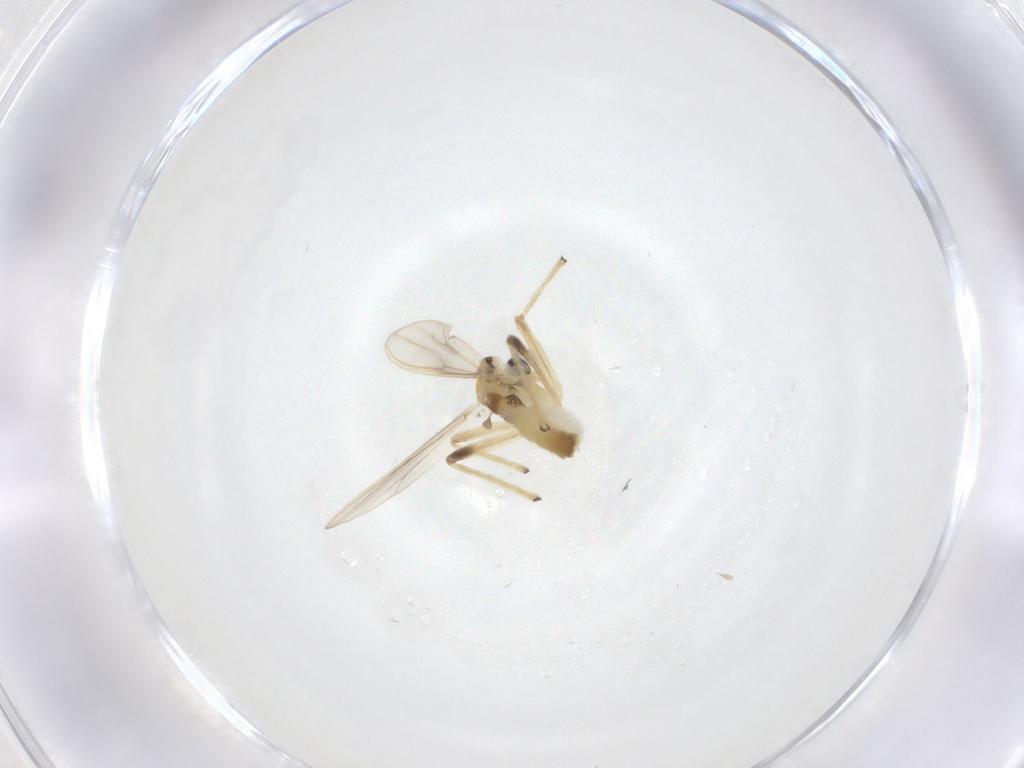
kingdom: Animalia
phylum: Arthropoda
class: Insecta
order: Diptera
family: Chironomidae
